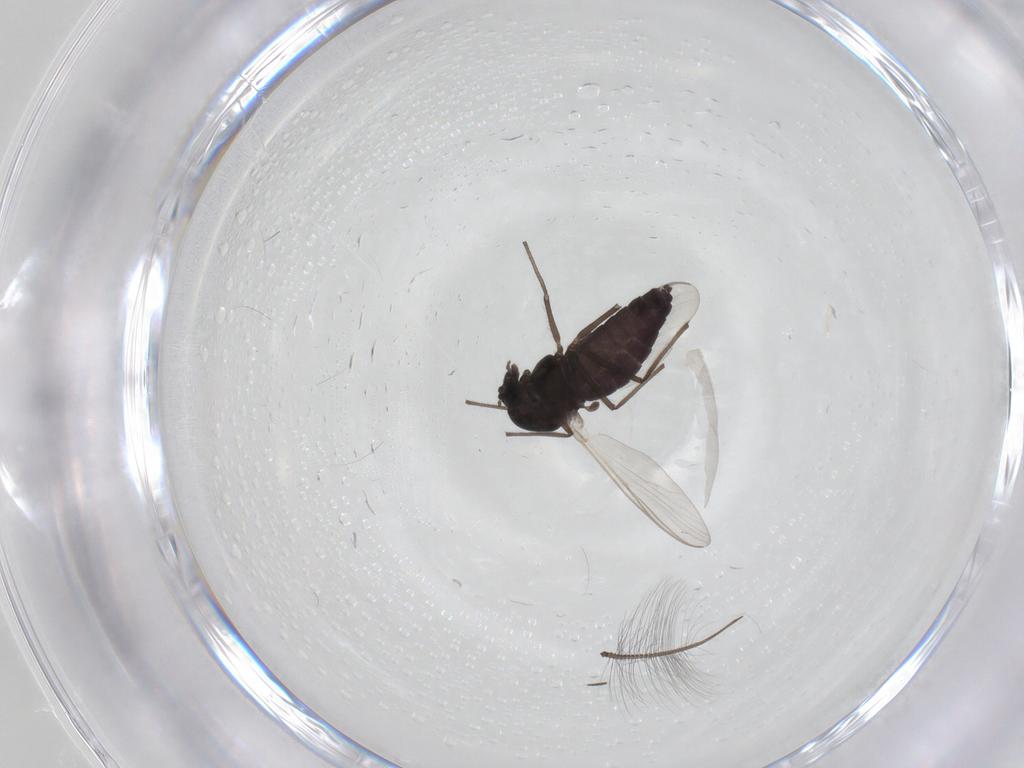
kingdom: Animalia
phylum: Arthropoda
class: Insecta
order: Diptera
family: Chironomidae
